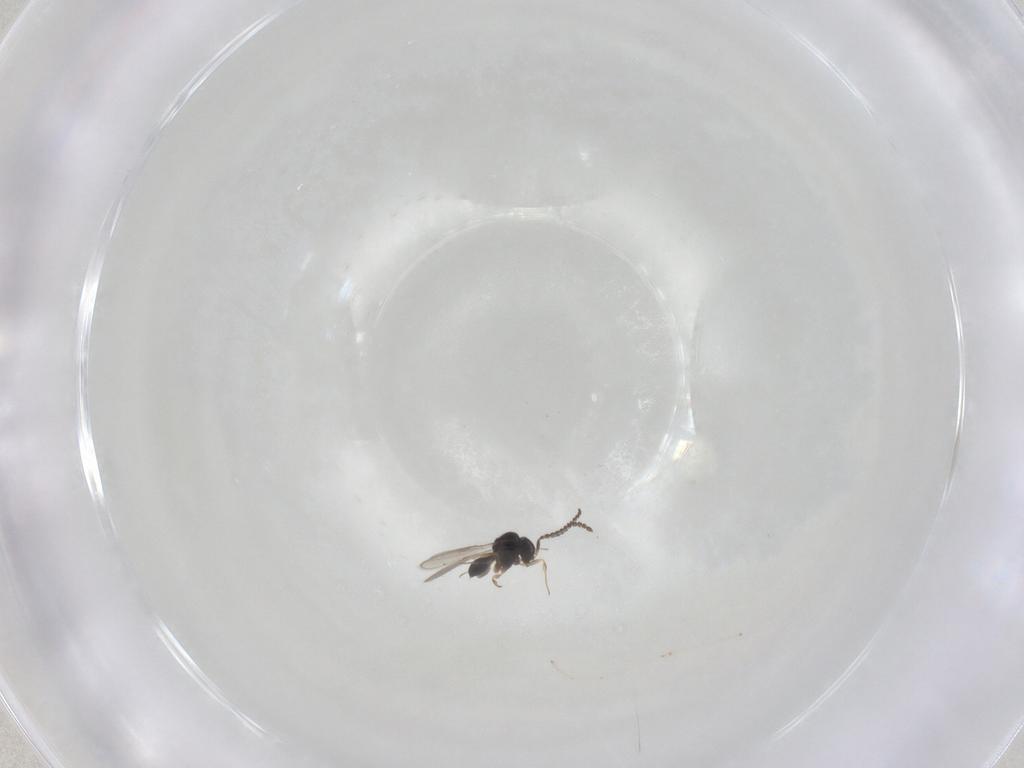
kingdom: Animalia
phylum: Arthropoda
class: Insecta
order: Hymenoptera
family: Scelionidae
